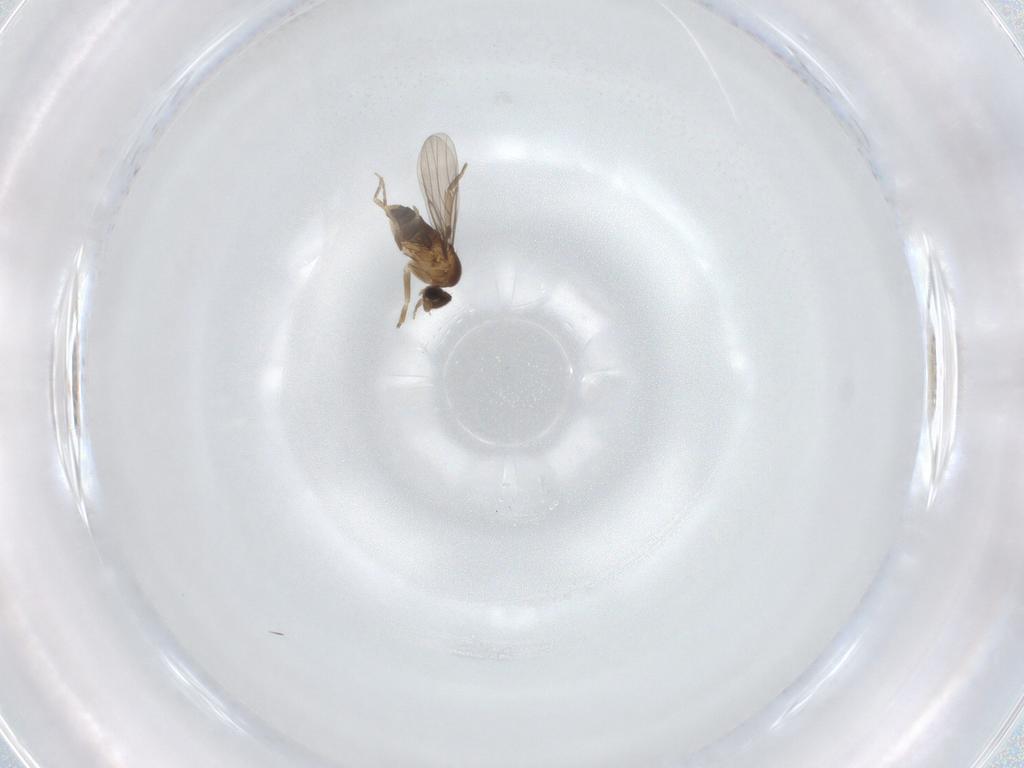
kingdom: Animalia
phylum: Arthropoda
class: Insecta
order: Diptera
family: Phoridae
